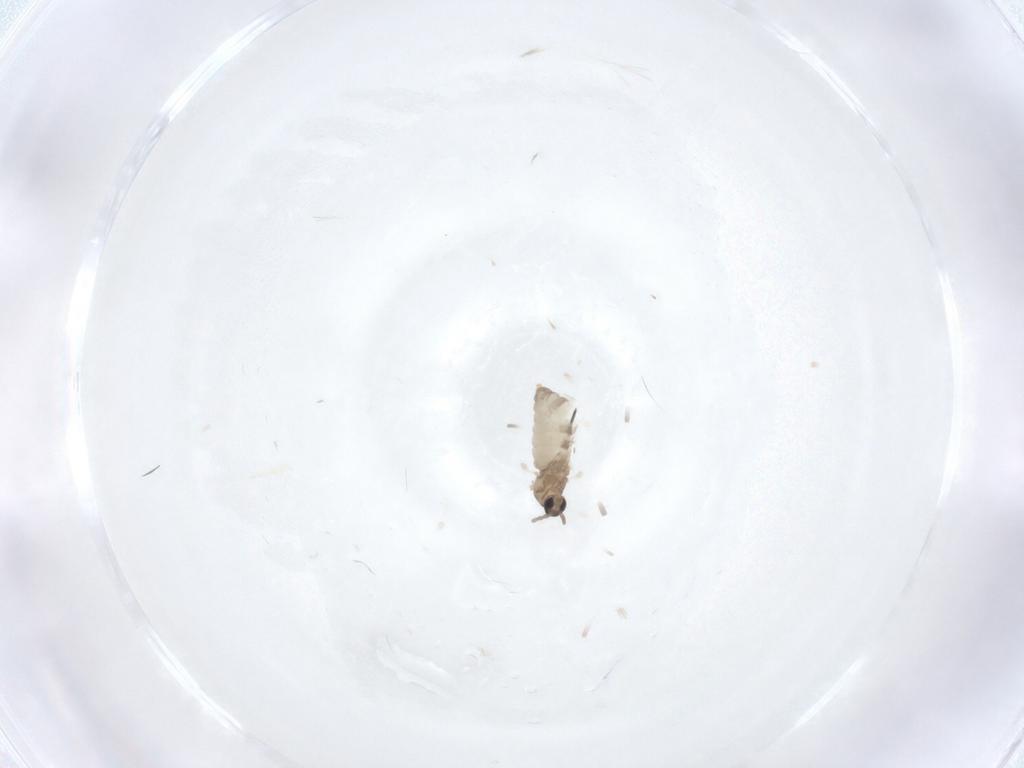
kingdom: Animalia
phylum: Arthropoda
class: Insecta
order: Diptera
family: Cecidomyiidae
